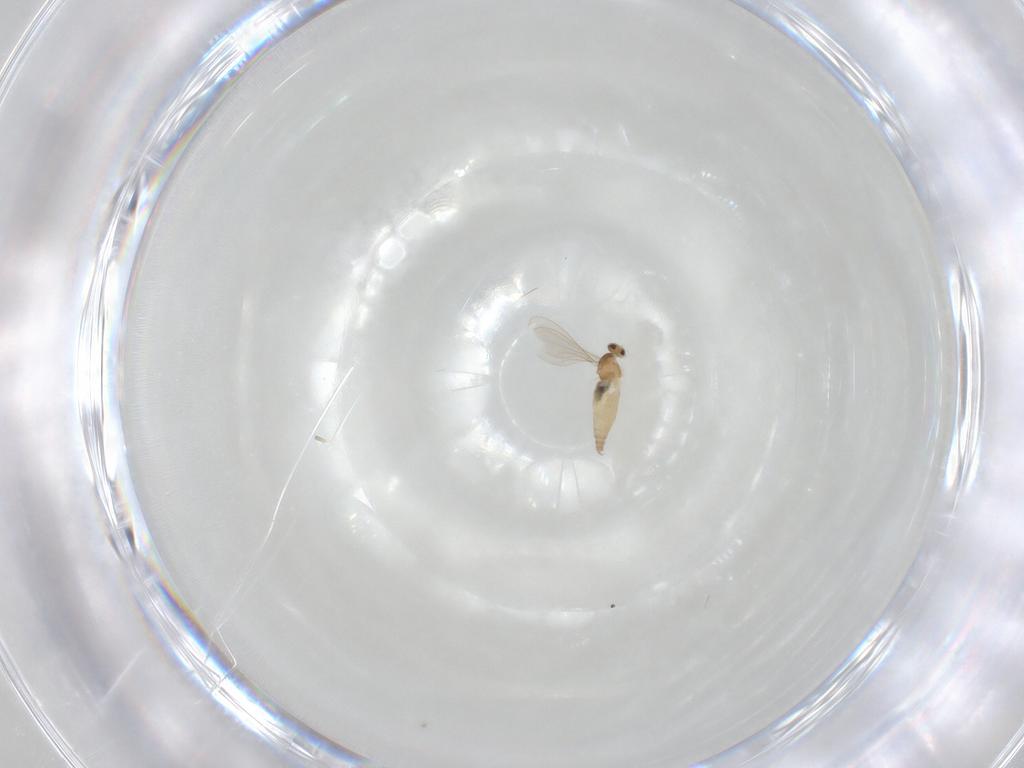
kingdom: Animalia
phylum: Arthropoda
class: Insecta
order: Diptera
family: Cecidomyiidae
